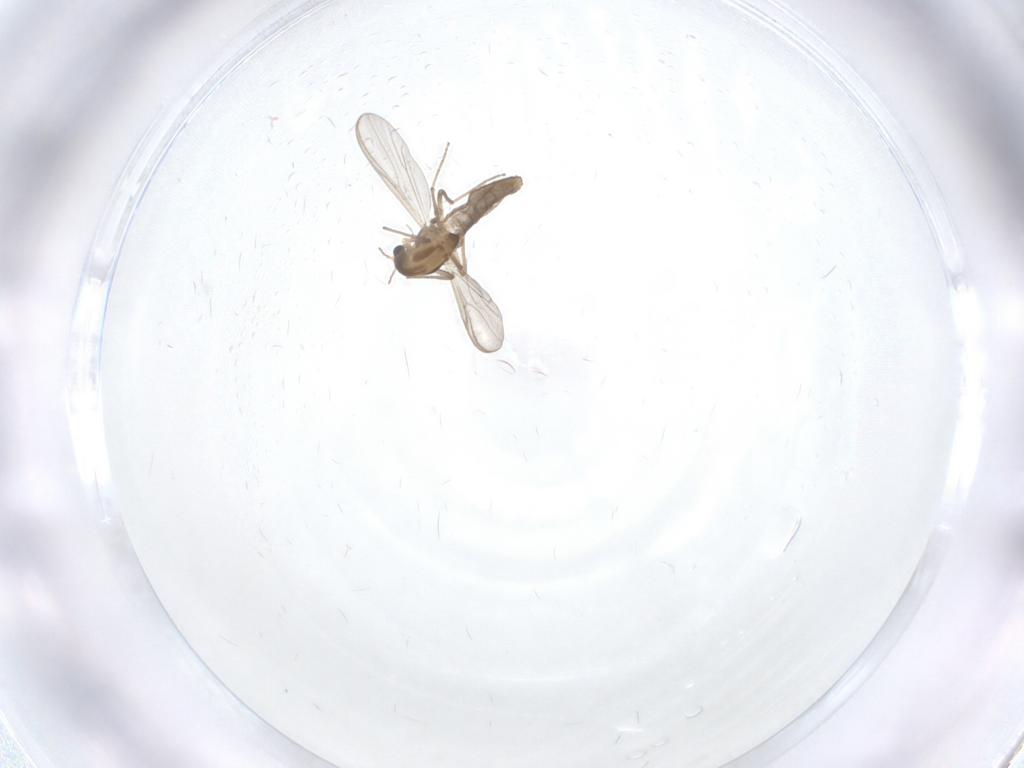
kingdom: Animalia
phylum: Arthropoda
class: Insecta
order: Diptera
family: Chironomidae
